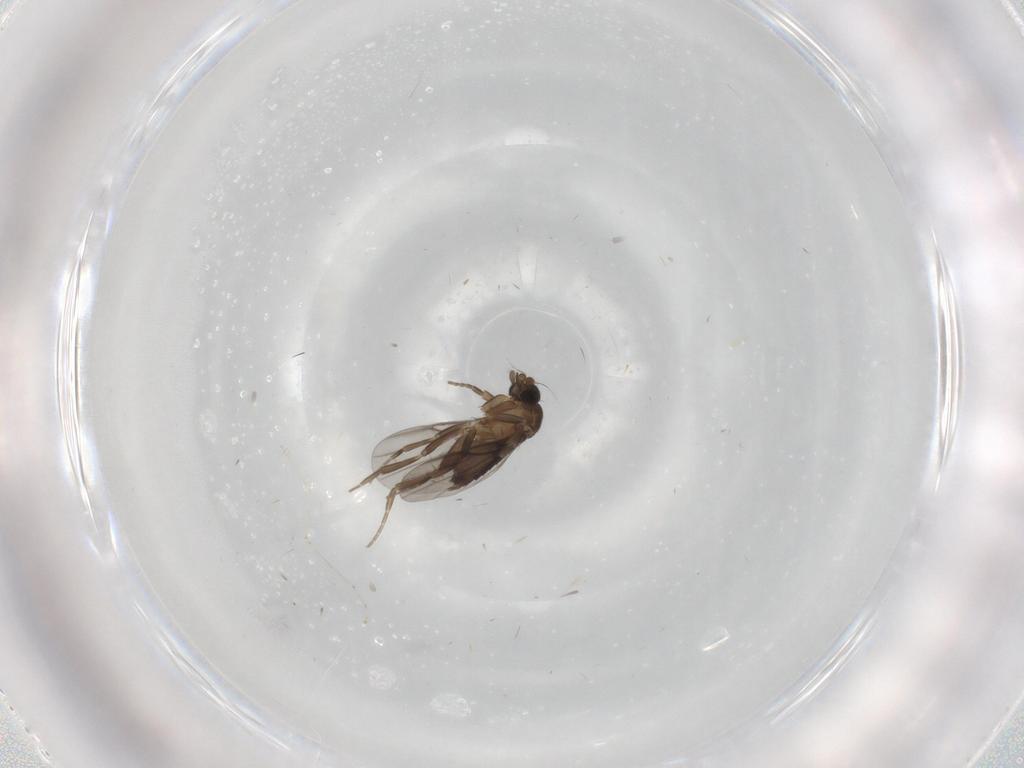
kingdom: Animalia
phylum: Arthropoda
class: Insecta
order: Diptera
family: Phoridae
